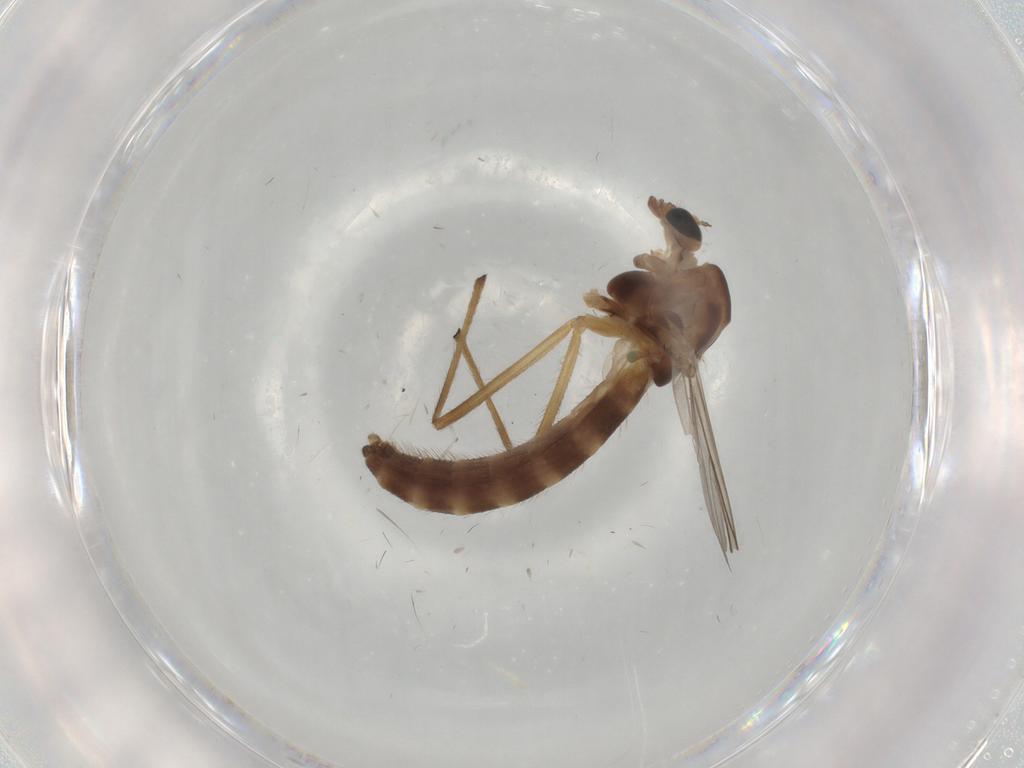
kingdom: Animalia
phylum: Arthropoda
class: Insecta
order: Diptera
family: Chironomidae
